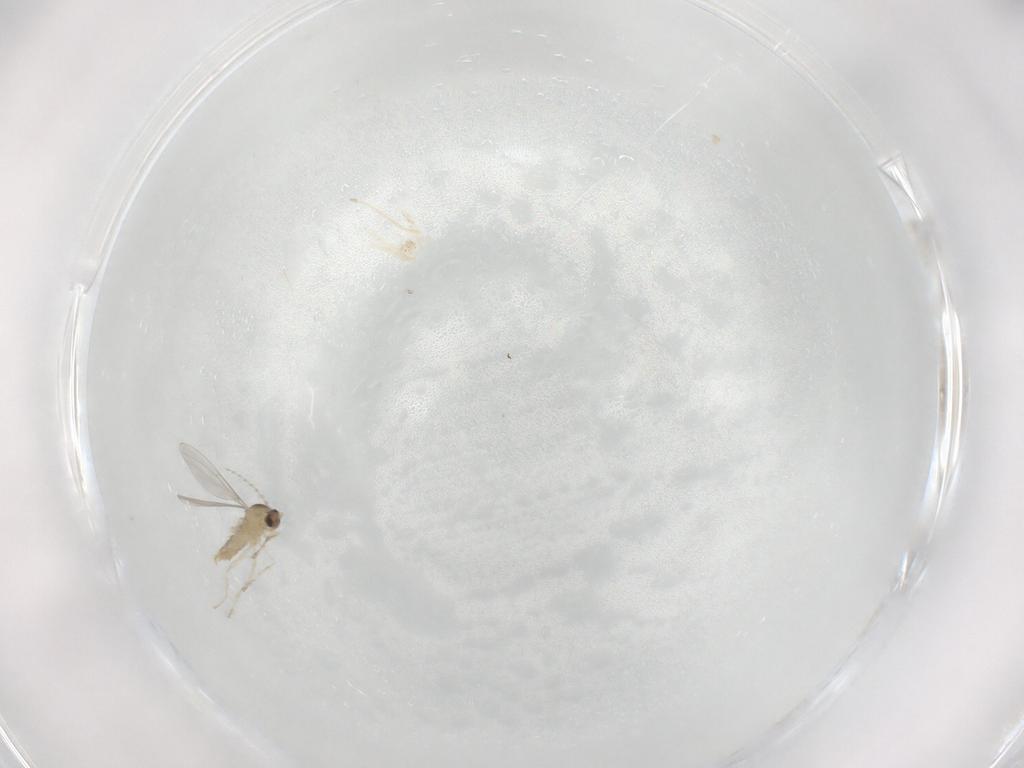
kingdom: Animalia
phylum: Arthropoda
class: Insecta
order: Diptera
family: Cecidomyiidae
